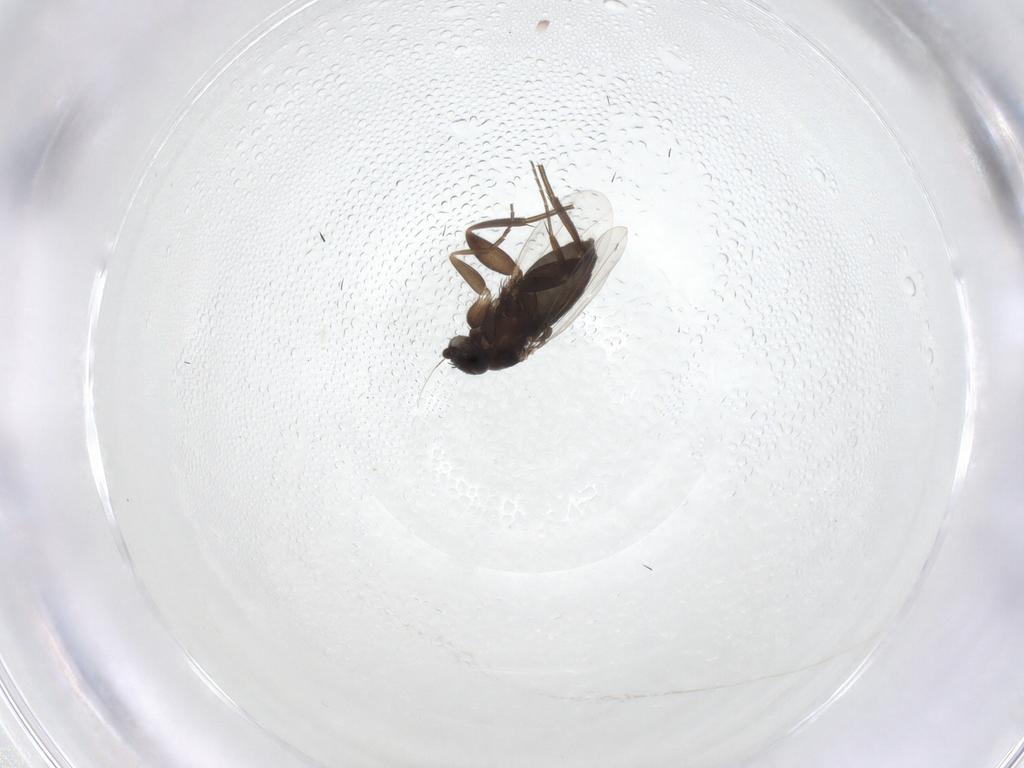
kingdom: Animalia
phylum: Arthropoda
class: Insecta
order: Diptera
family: Phoridae
